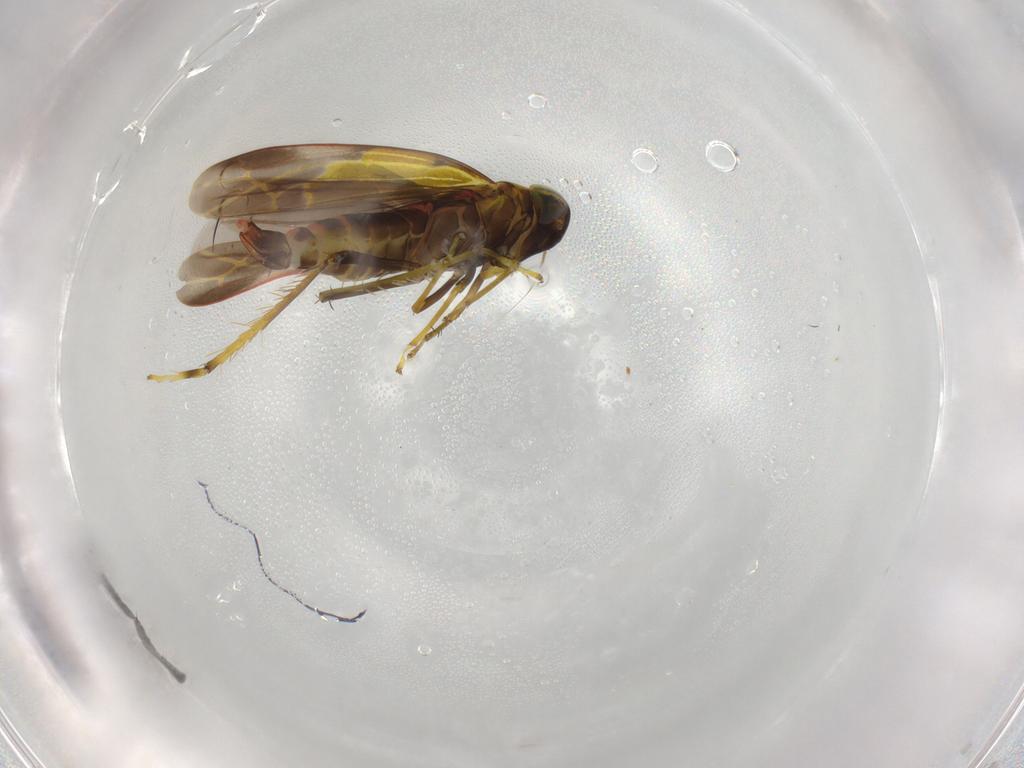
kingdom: Animalia
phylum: Arthropoda
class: Insecta
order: Hemiptera
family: Cicadellidae
